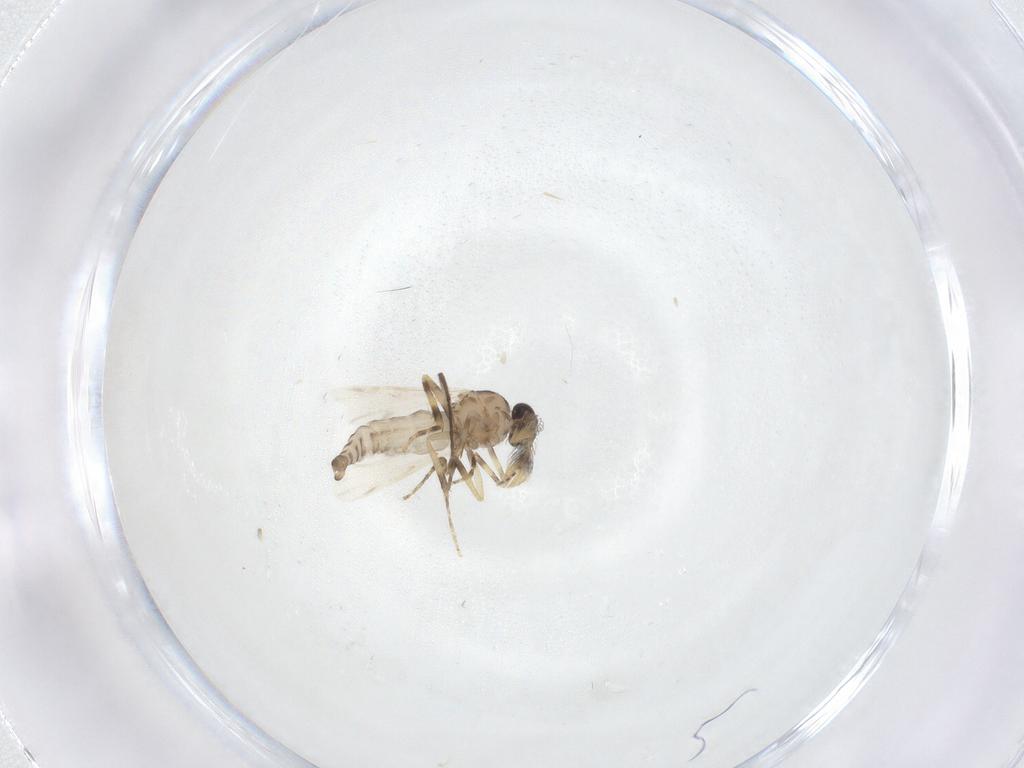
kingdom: Animalia
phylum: Arthropoda
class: Insecta
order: Diptera
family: Ceratopogonidae
